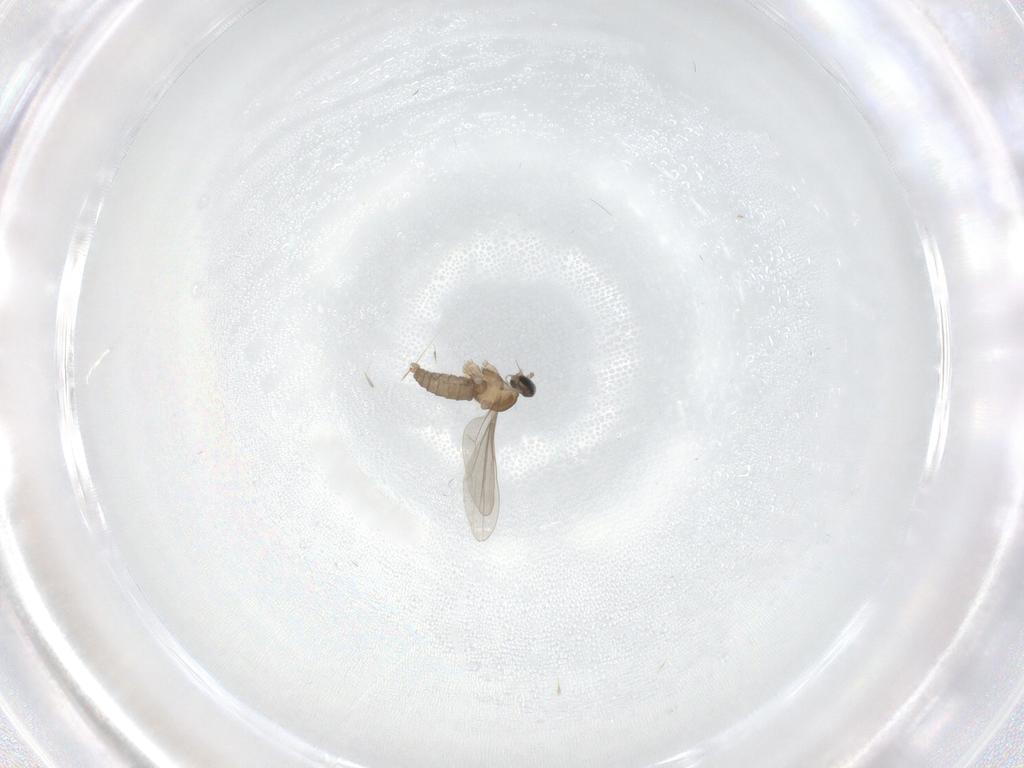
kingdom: Animalia
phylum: Arthropoda
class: Insecta
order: Diptera
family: Cecidomyiidae
